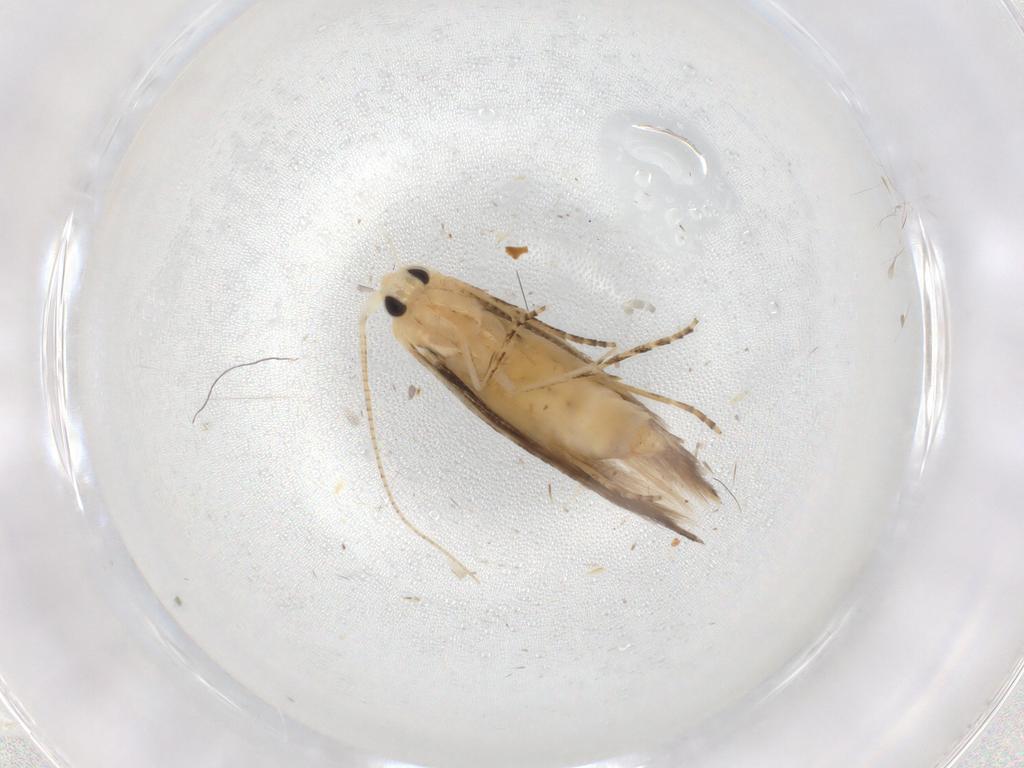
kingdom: Animalia
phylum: Arthropoda
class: Insecta
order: Lepidoptera
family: Bucculatricidae
